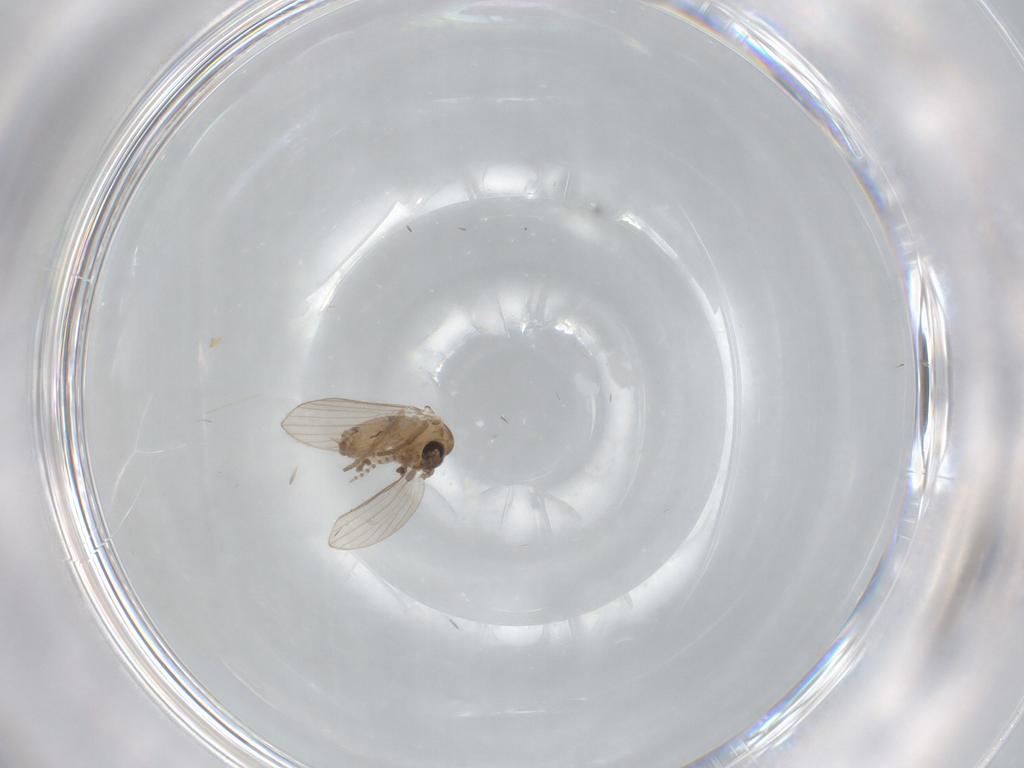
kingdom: Animalia
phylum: Arthropoda
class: Insecta
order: Diptera
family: Psychodidae
